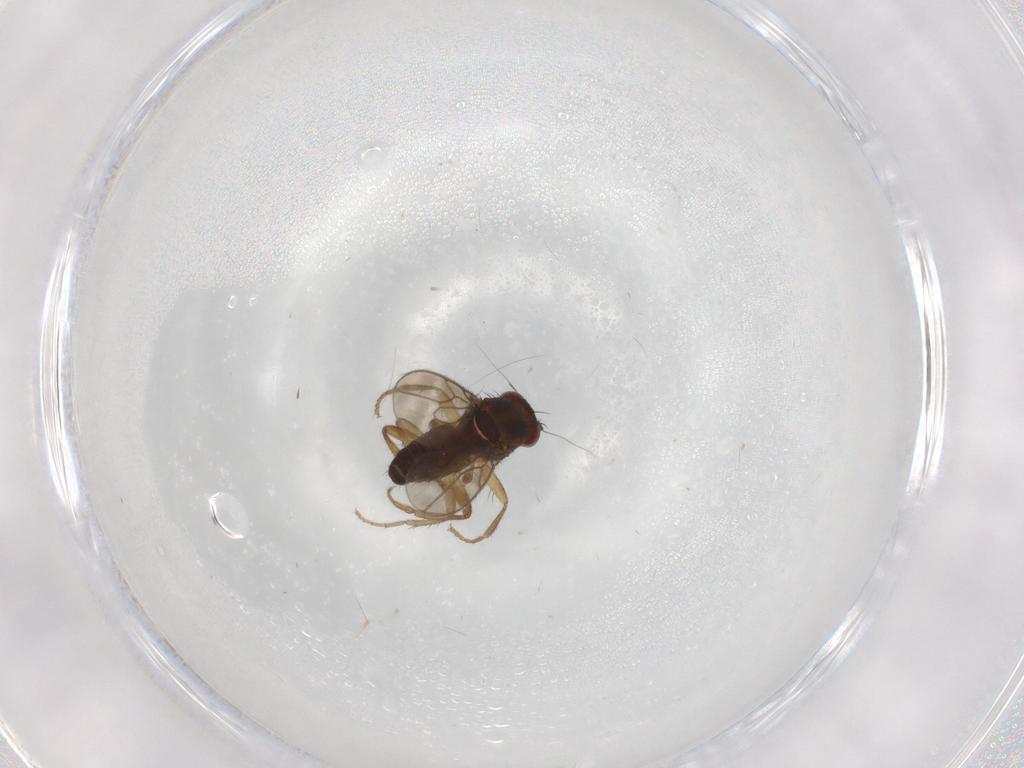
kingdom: Animalia
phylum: Arthropoda
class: Insecta
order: Diptera
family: Sphaeroceridae
